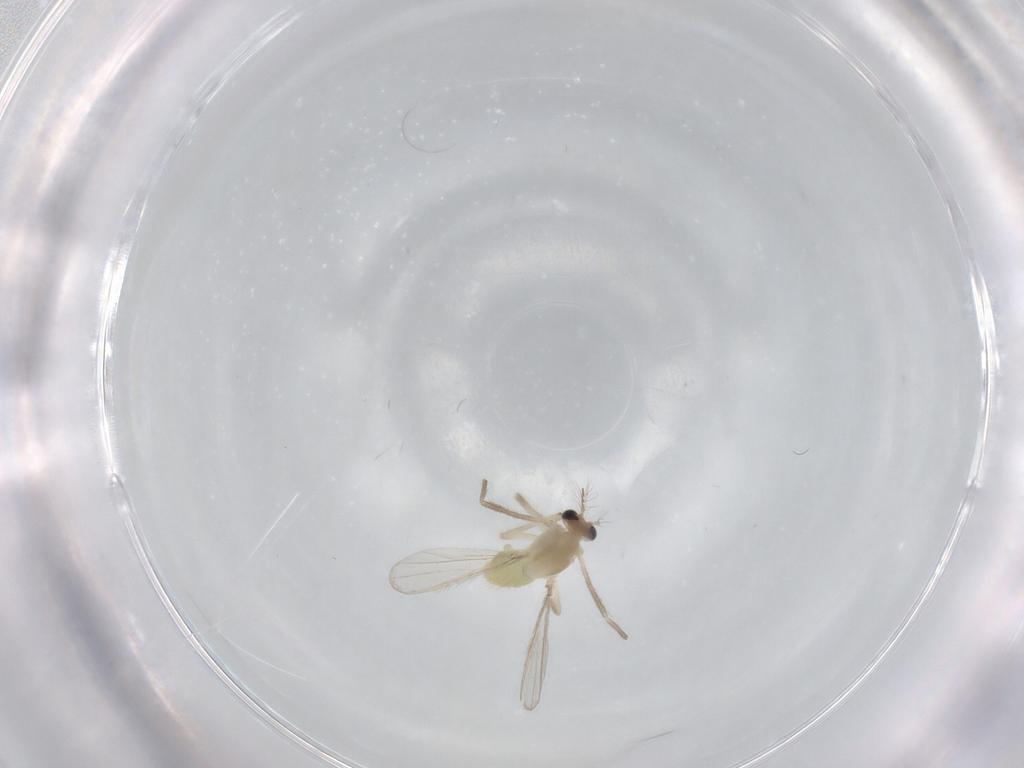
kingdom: Animalia
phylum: Arthropoda
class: Insecta
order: Diptera
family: Chironomidae
